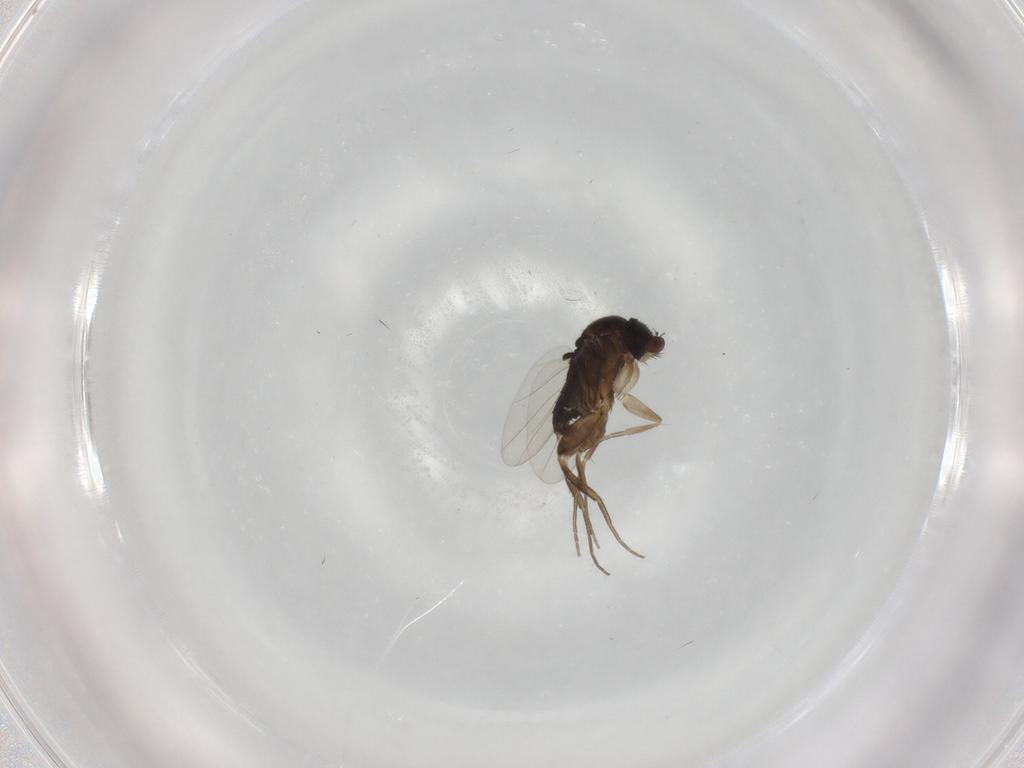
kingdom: Animalia
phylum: Arthropoda
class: Insecta
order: Diptera
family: Phoridae
